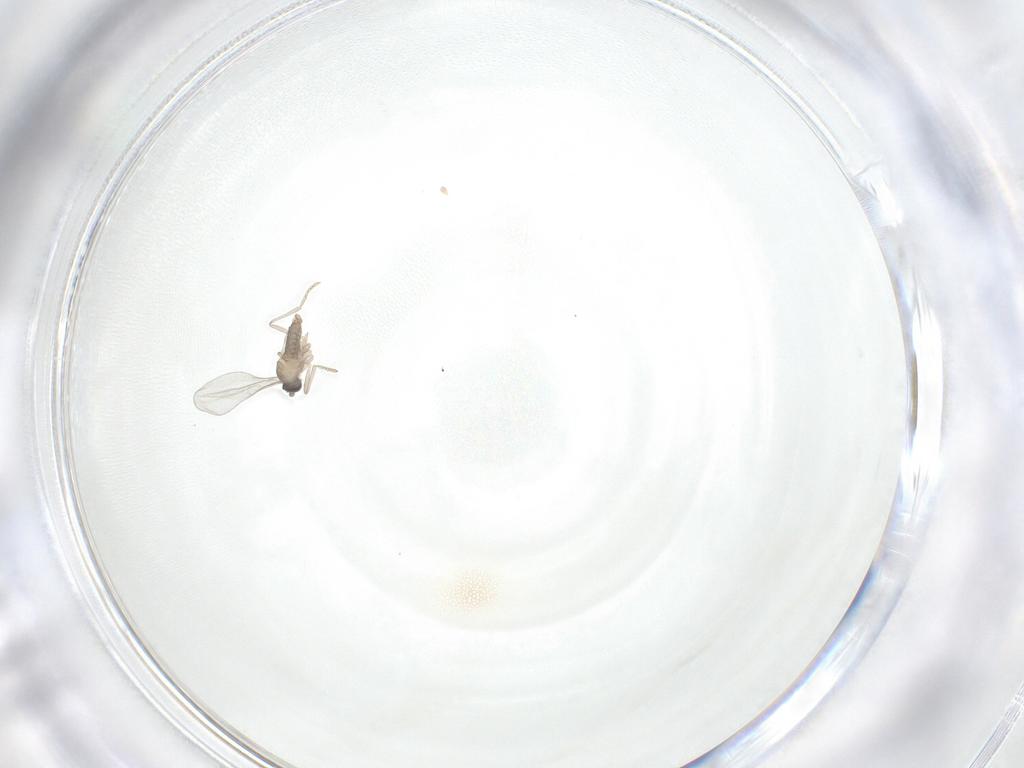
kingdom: Animalia
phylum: Arthropoda
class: Insecta
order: Diptera
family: Cecidomyiidae
